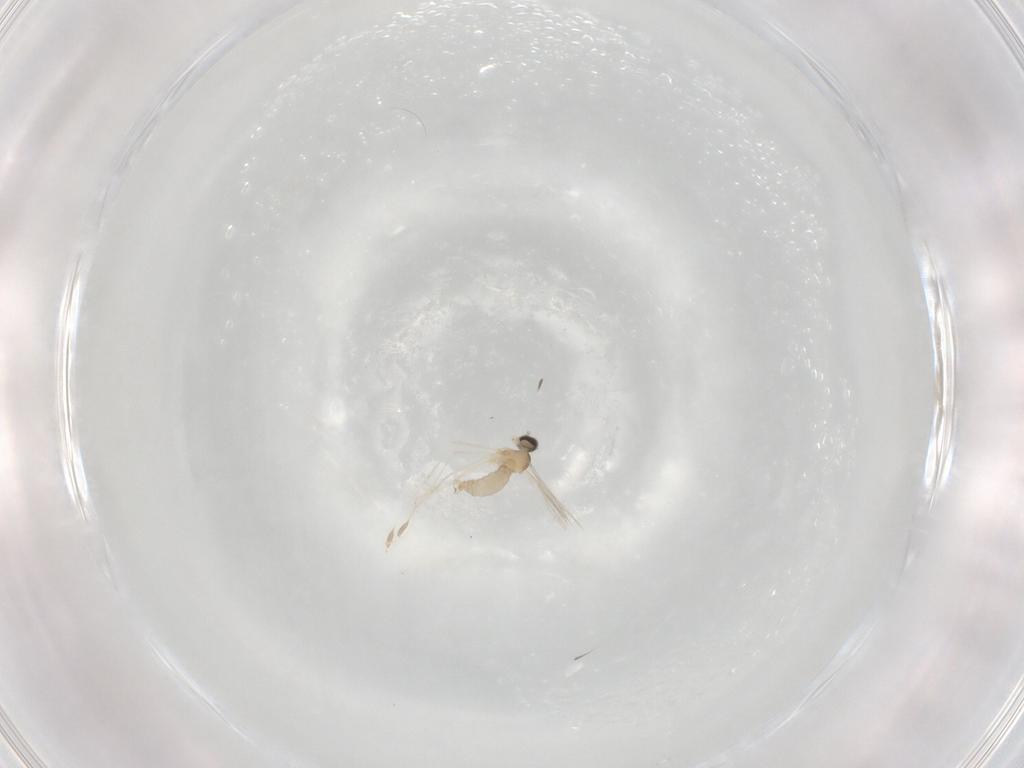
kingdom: Animalia
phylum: Arthropoda
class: Insecta
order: Diptera
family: Cecidomyiidae
